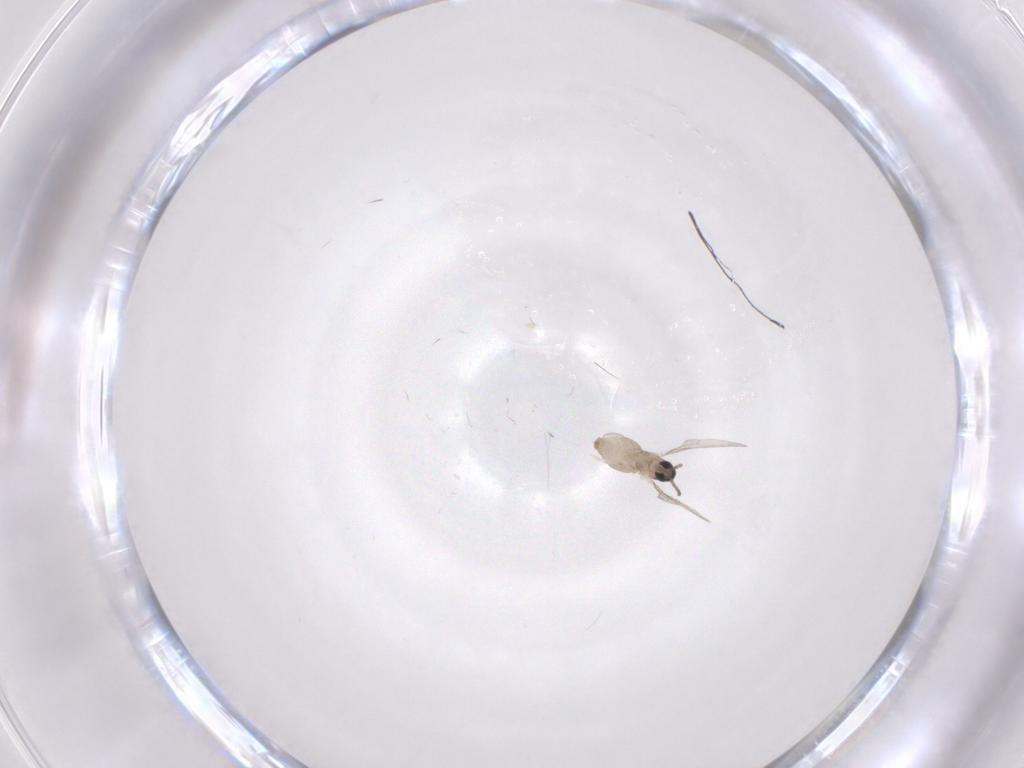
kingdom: Animalia
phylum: Arthropoda
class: Insecta
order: Diptera
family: Cecidomyiidae
